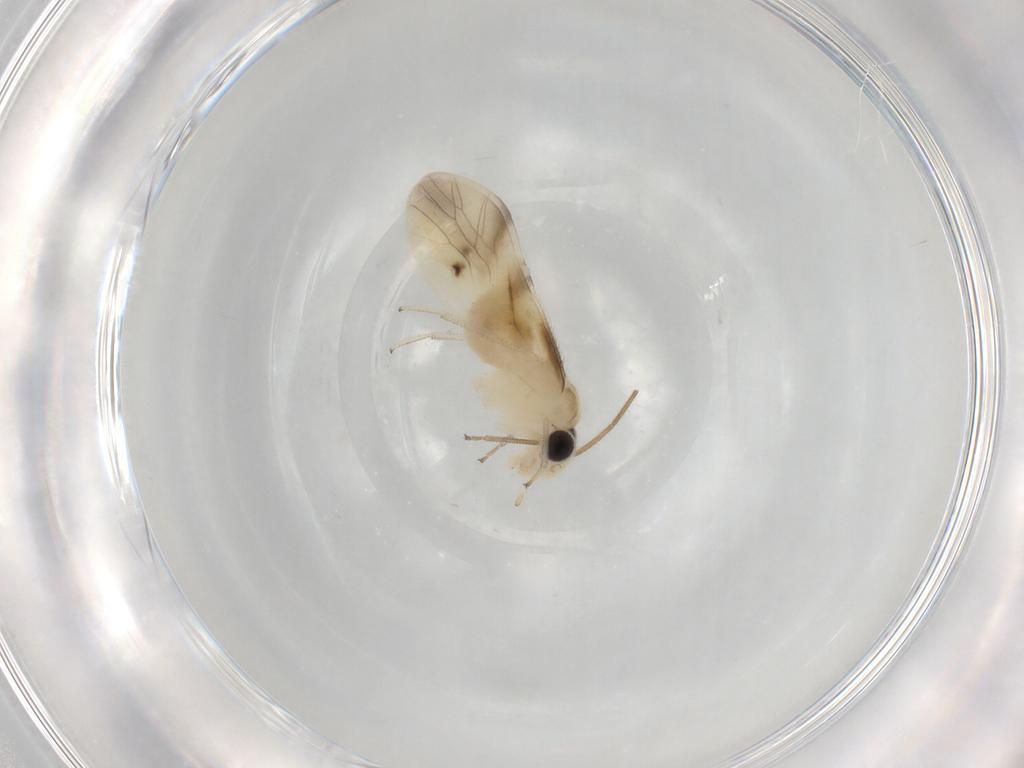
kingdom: Animalia
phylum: Arthropoda
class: Insecta
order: Psocodea
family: Caeciliusidae
